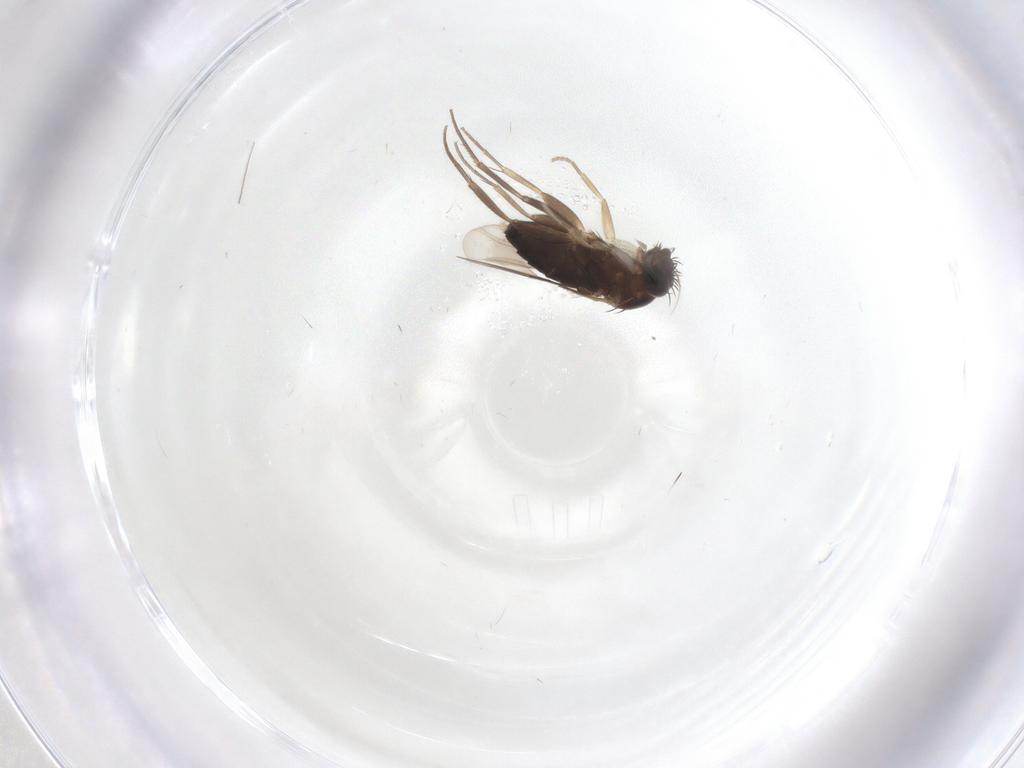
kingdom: Animalia
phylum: Arthropoda
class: Insecta
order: Diptera
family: Phoridae
